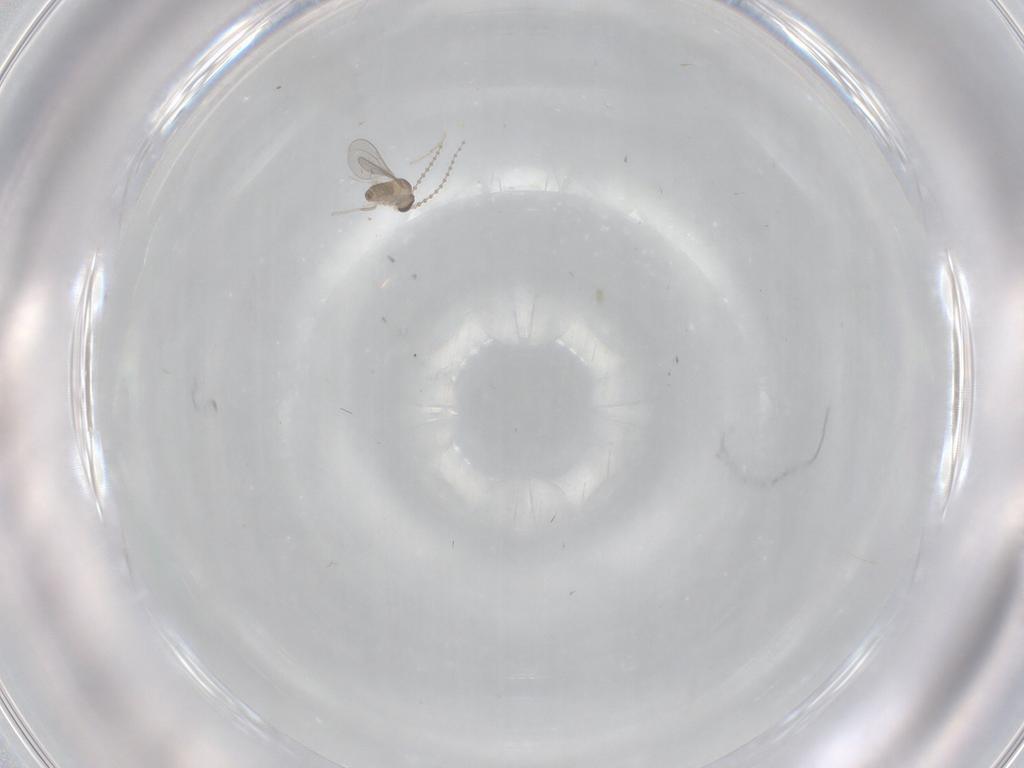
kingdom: Animalia
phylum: Arthropoda
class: Insecta
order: Diptera
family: Cecidomyiidae
